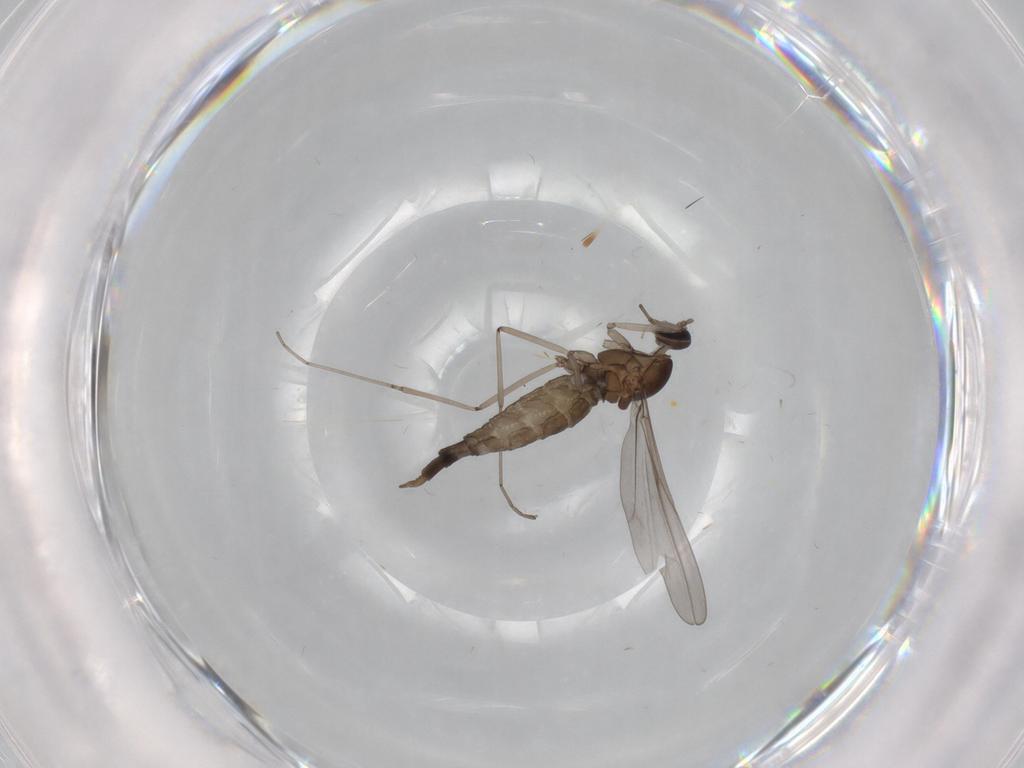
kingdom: Animalia
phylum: Arthropoda
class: Insecta
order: Diptera
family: Cecidomyiidae
